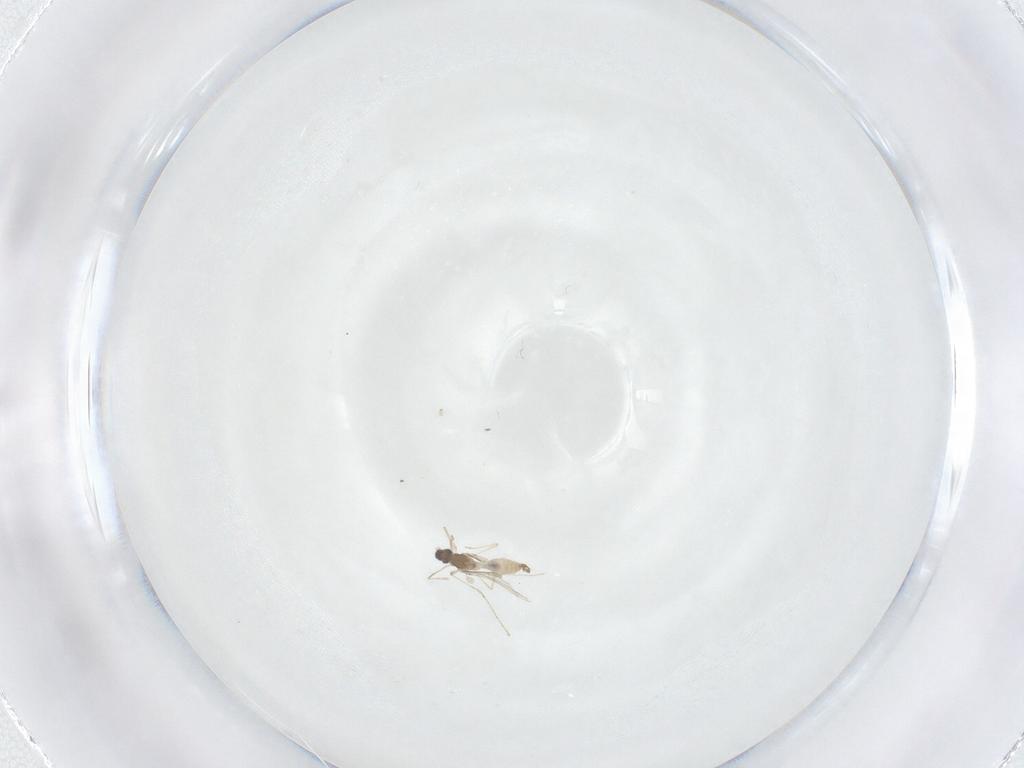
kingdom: Animalia
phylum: Arthropoda
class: Insecta
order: Diptera
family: Cecidomyiidae
